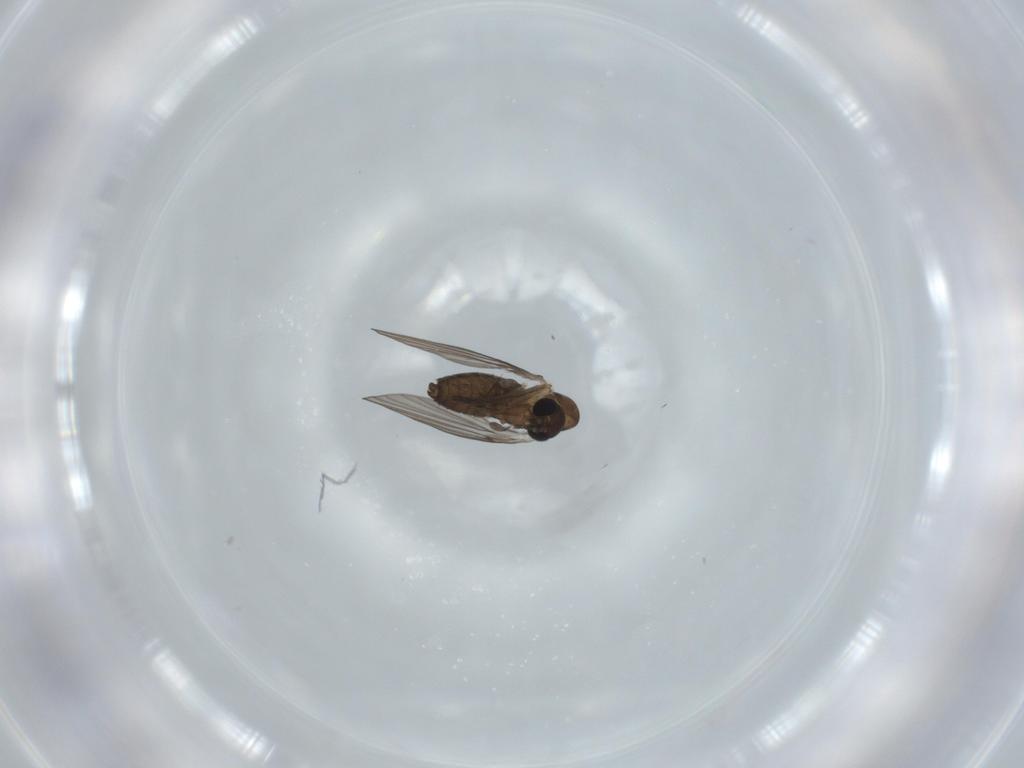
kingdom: Animalia
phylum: Arthropoda
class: Insecta
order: Diptera
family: Psychodidae
